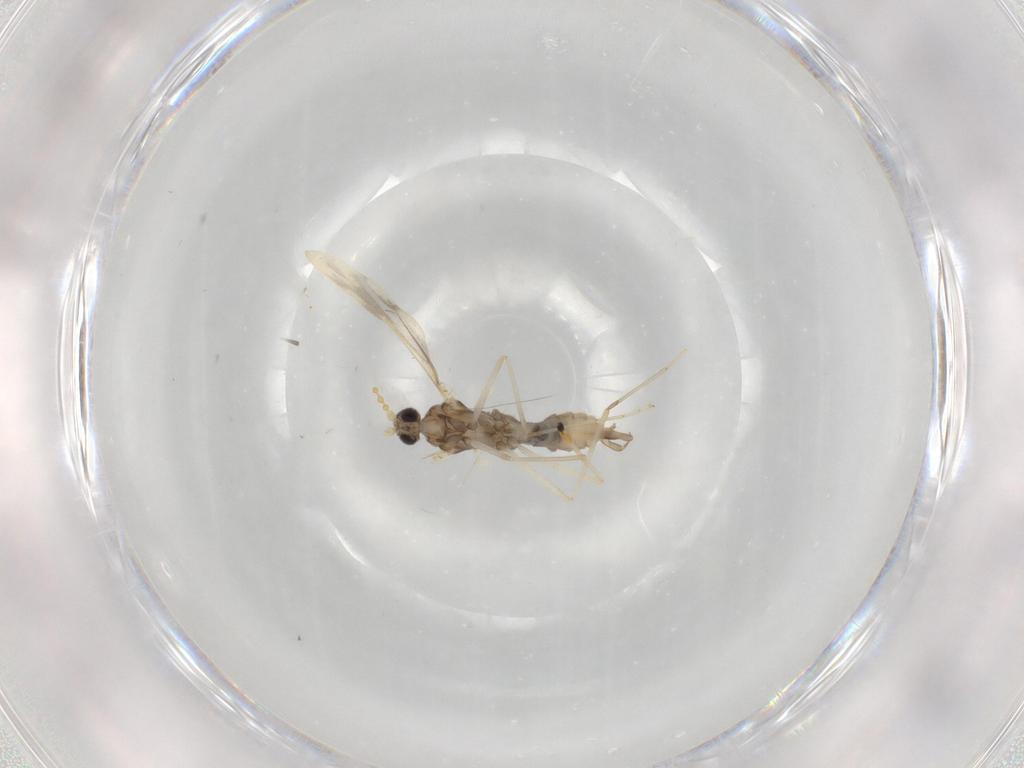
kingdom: Animalia
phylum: Arthropoda
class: Insecta
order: Diptera
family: Cecidomyiidae
